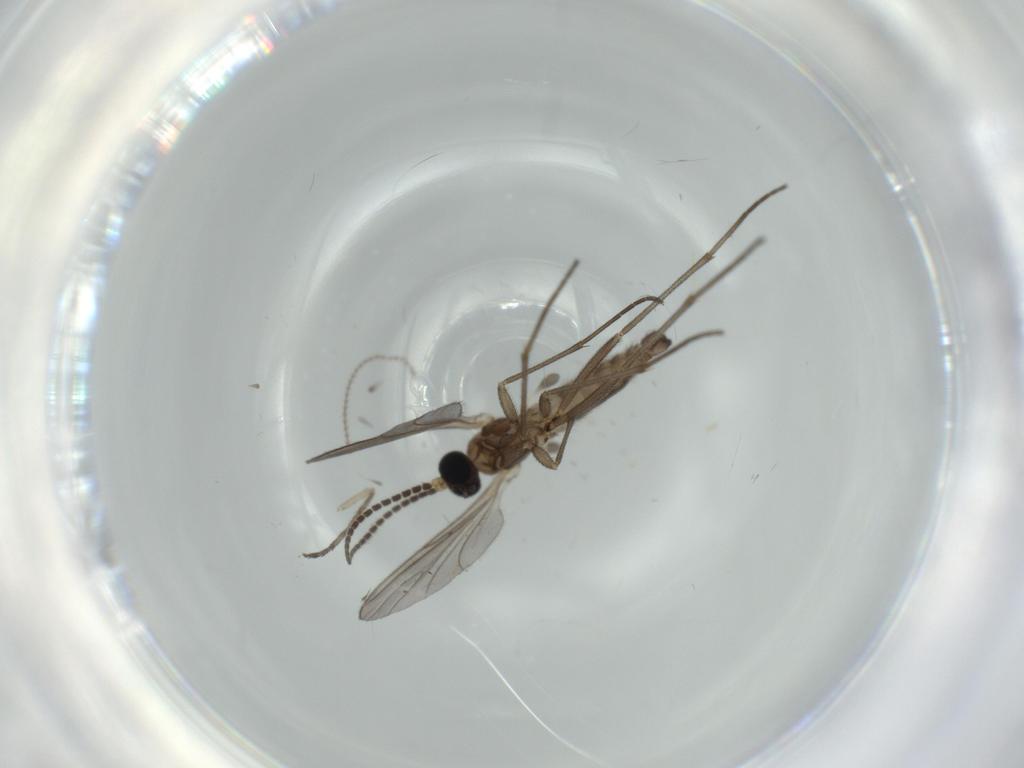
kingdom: Animalia
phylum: Arthropoda
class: Insecta
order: Diptera
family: Sciaridae
